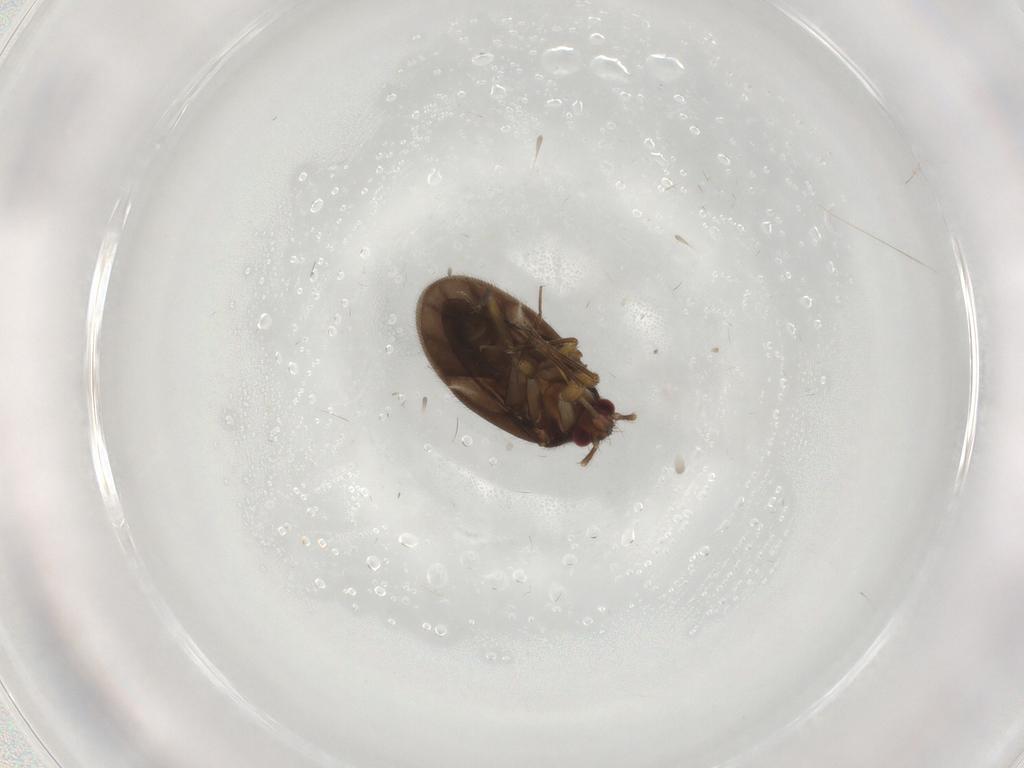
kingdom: Animalia
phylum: Arthropoda
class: Insecta
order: Hemiptera
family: Ceratocombidae
